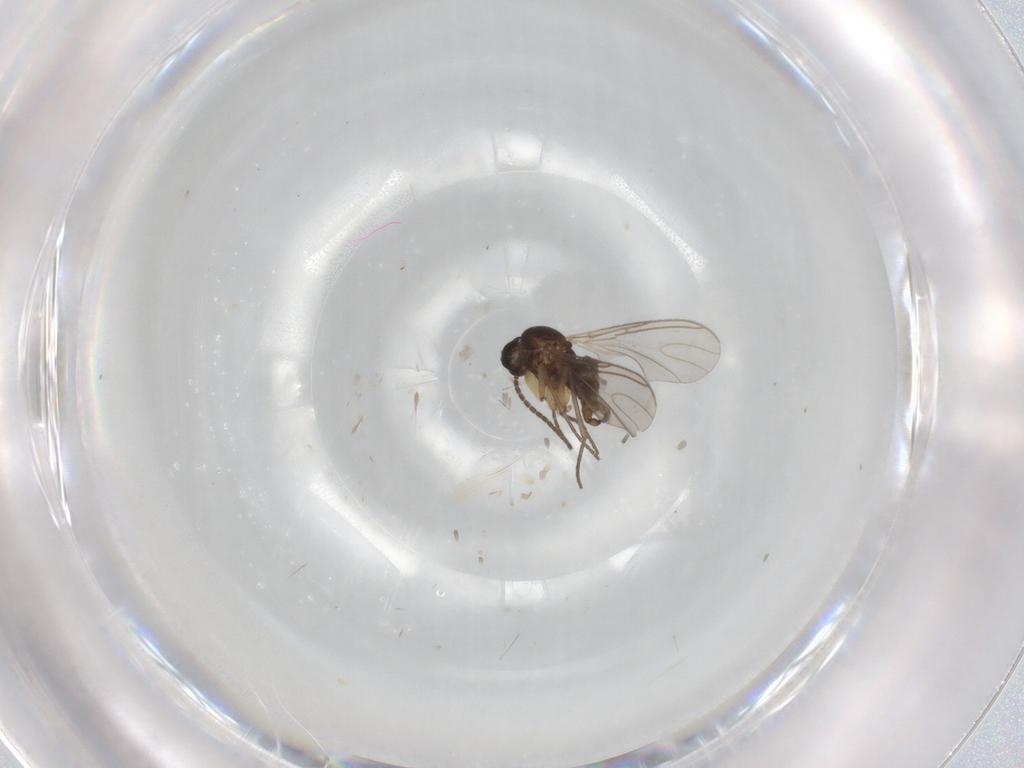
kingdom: Animalia
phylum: Arthropoda
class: Insecta
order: Diptera
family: Sciaridae
